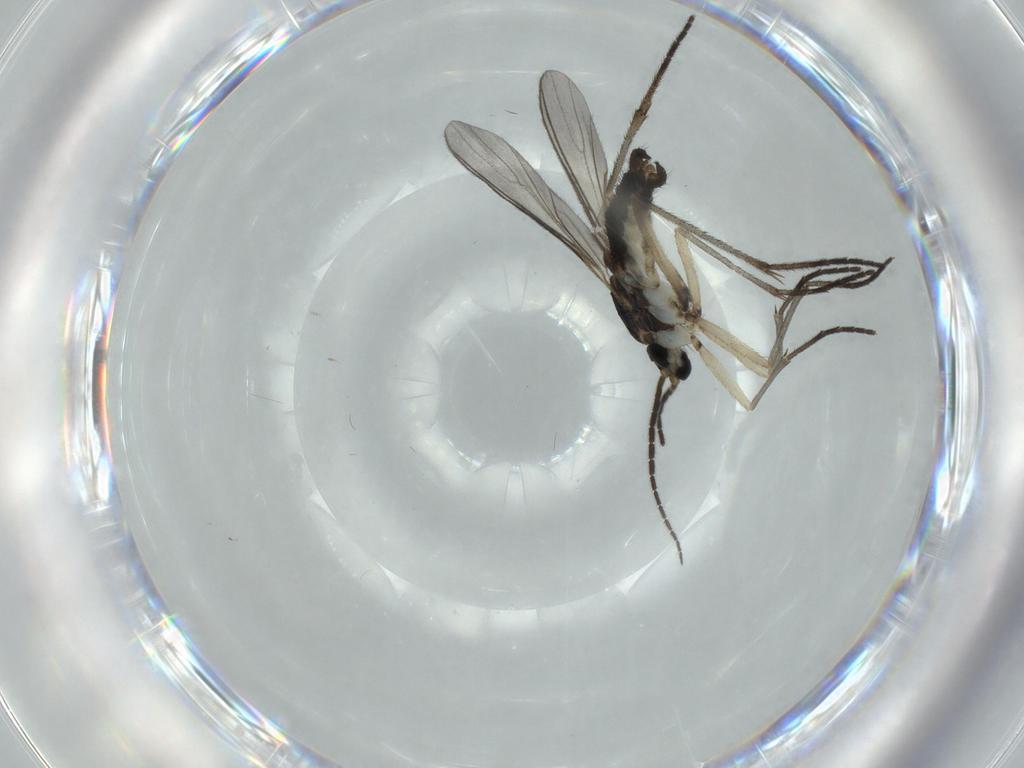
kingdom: Animalia
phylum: Arthropoda
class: Insecta
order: Diptera
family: Sciaridae
